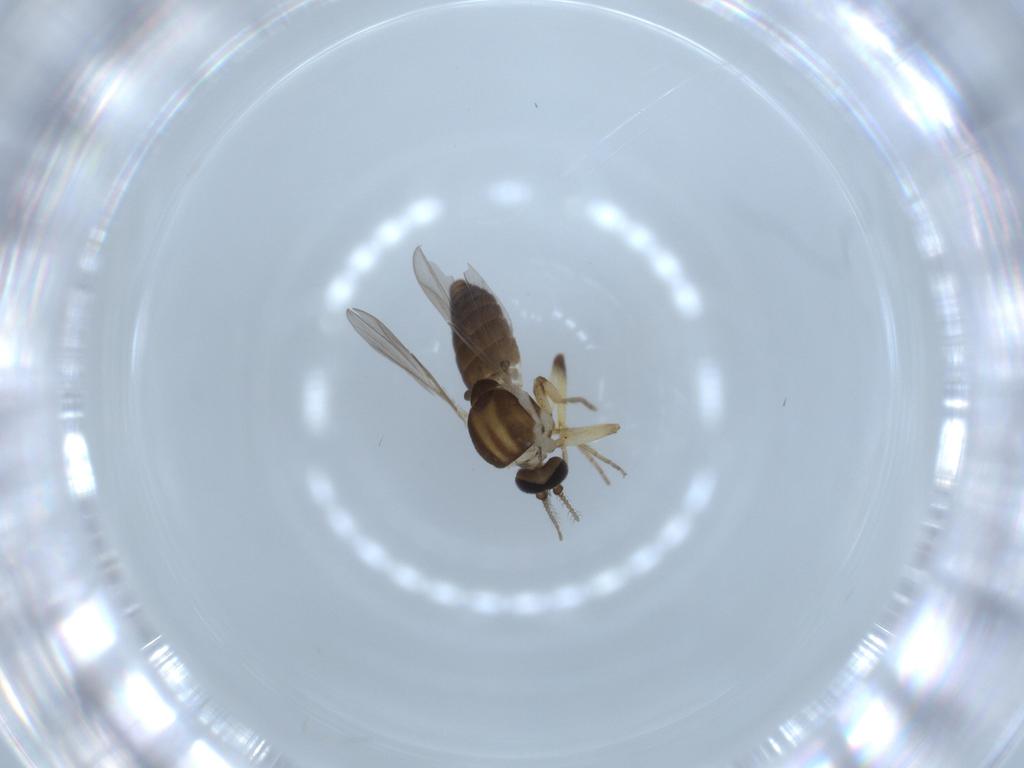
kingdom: Animalia
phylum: Arthropoda
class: Insecta
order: Diptera
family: Ceratopogonidae
